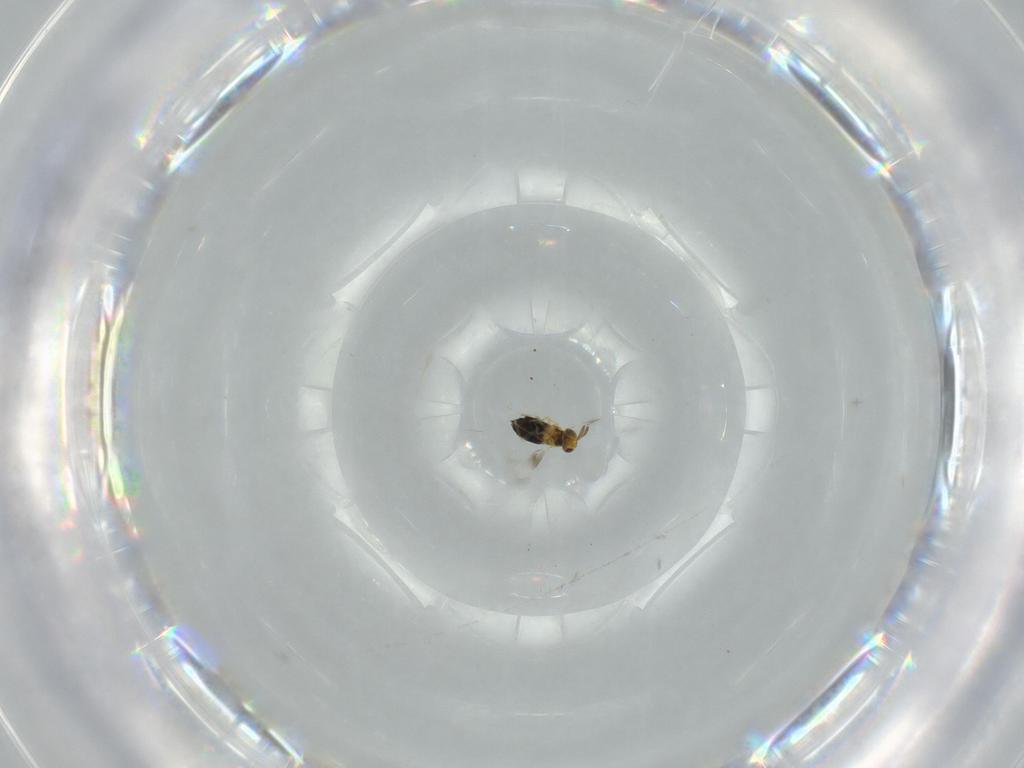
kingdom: Animalia
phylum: Arthropoda
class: Insecta
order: Hymenoptera
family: Signiphoridae
